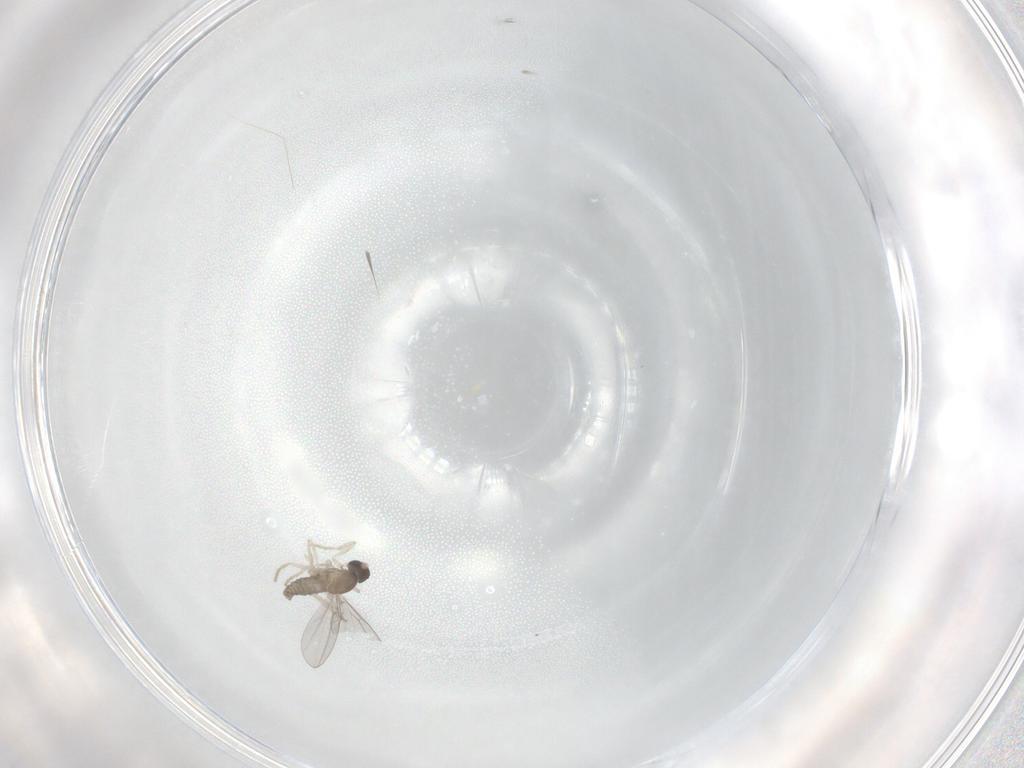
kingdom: Animalia
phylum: Arthropoda
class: Insecta
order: Diptera
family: Cecidomyiidae
